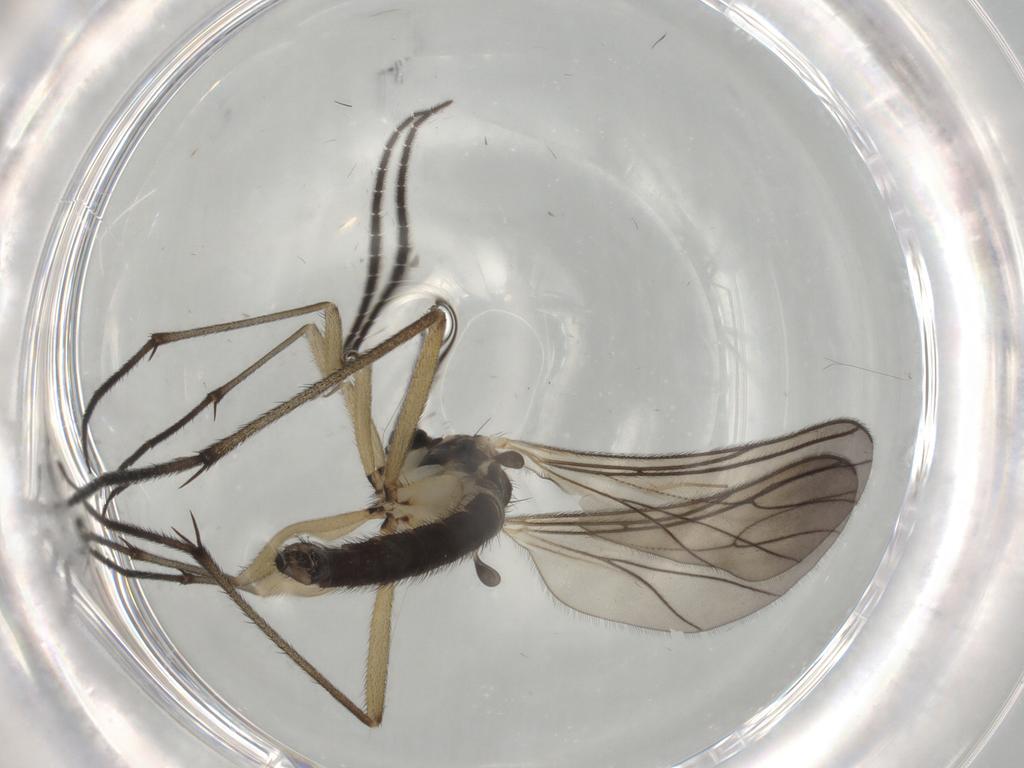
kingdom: Animalia
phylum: Arthropoda
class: Insecta
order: Diptera
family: Sciaridae
